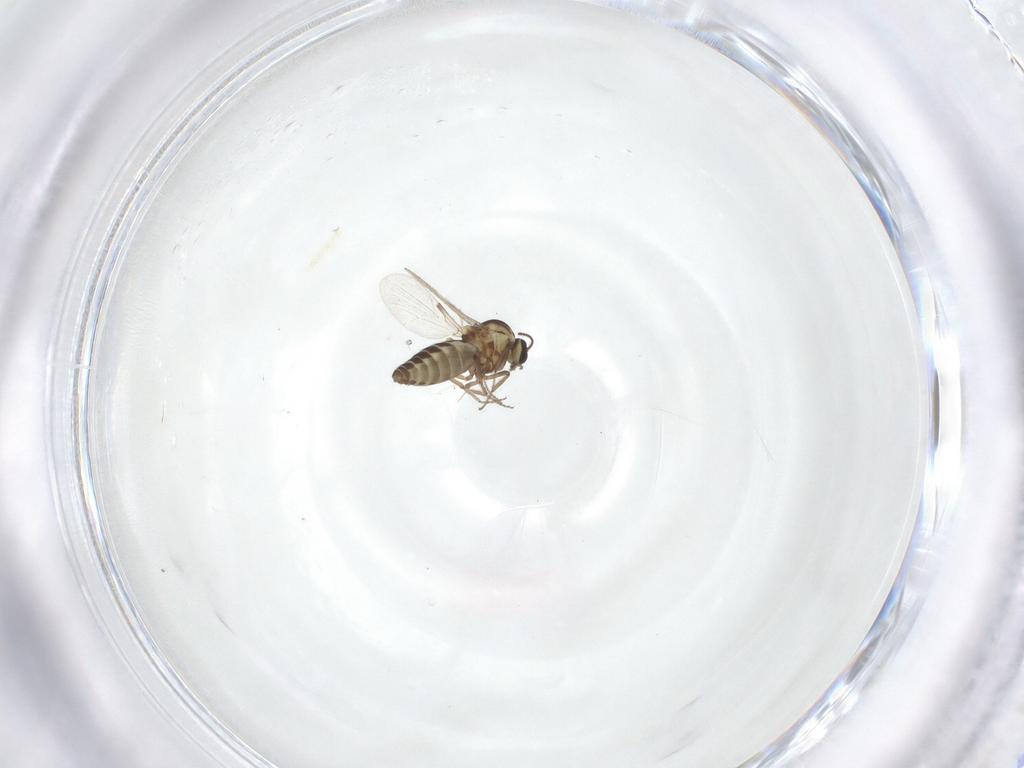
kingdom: Animalia
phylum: Arthropoda
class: Insecta
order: Diptera
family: Ceratopogonidae
